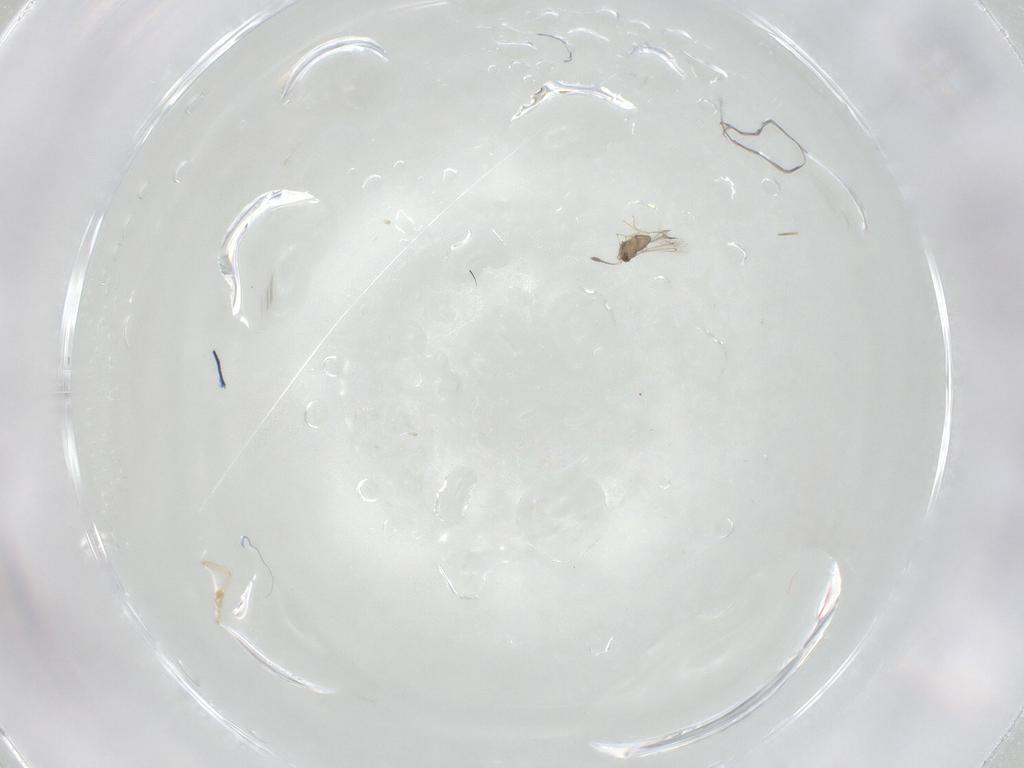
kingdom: Animalia
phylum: Arthropoda
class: Insecta
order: Hymenoptera
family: Mymaridae
